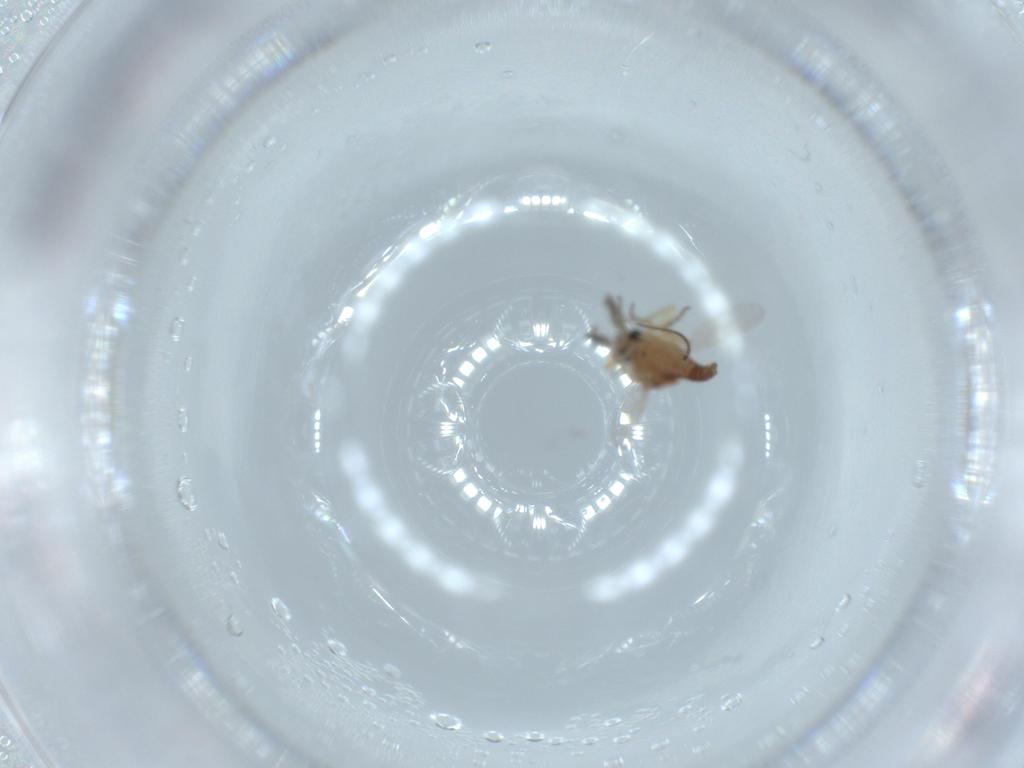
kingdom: Animalia
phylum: Arthropoda
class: Insecta
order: Diptera
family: Ceratopogonidae
